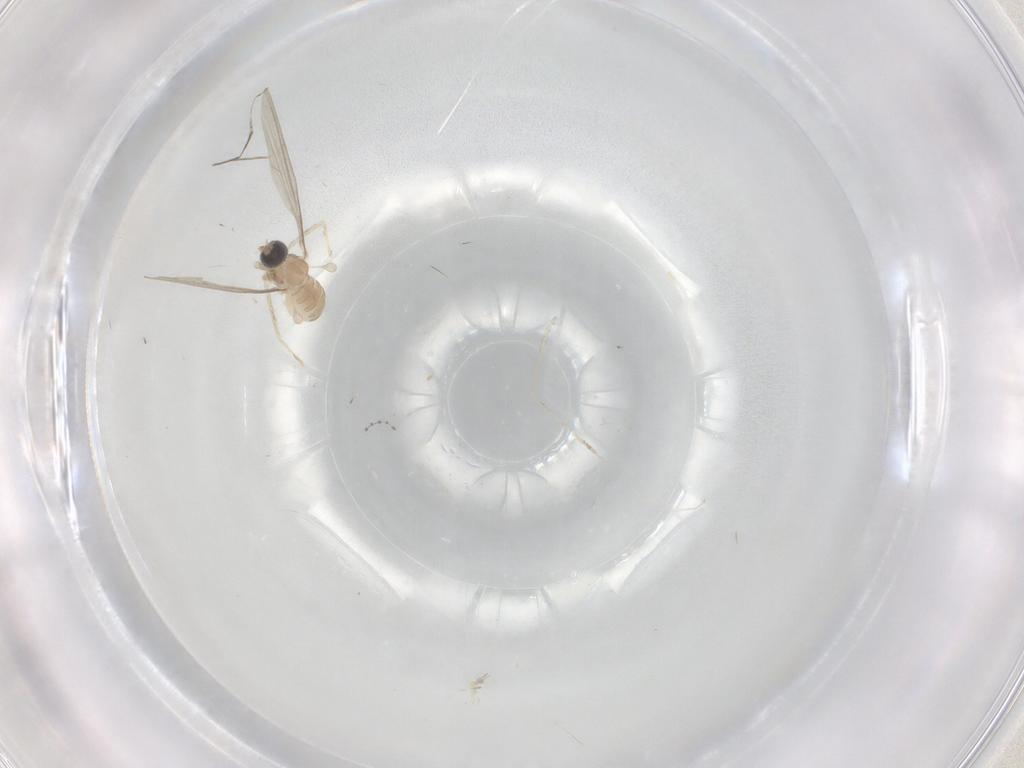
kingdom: Animalia
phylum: Arthropoda
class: Insecta
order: Diptera
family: Cecidomyiidae
